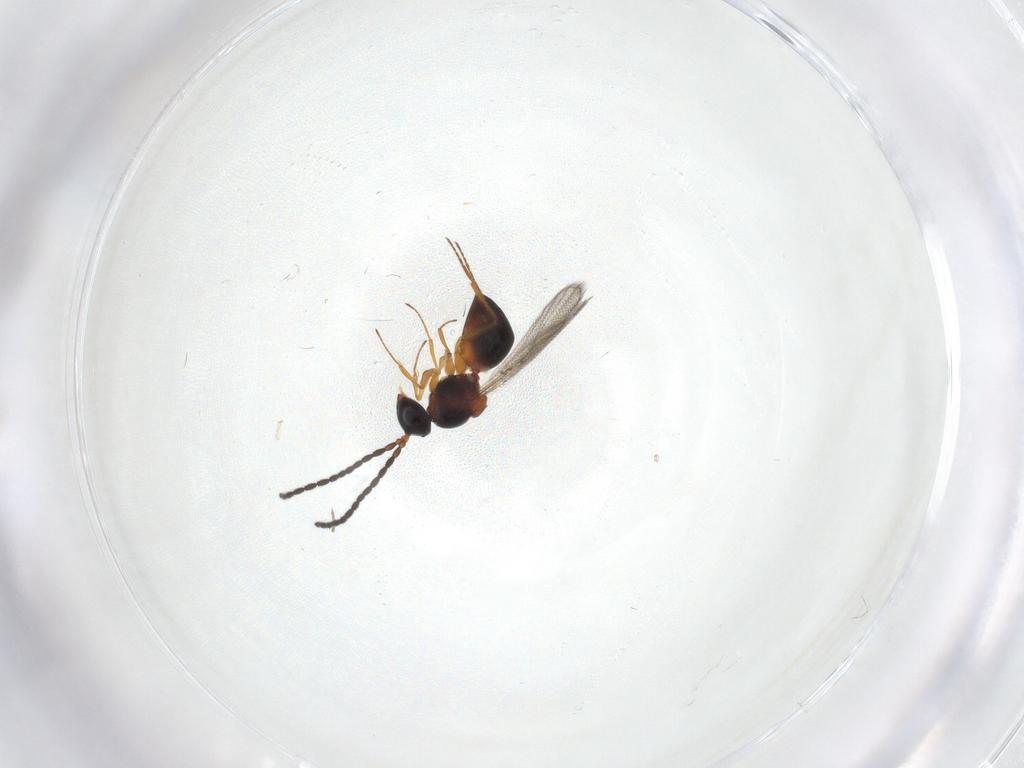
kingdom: Animalia
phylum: Arthropoda
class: Insecta
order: Hymenoptera
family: Figitidae
